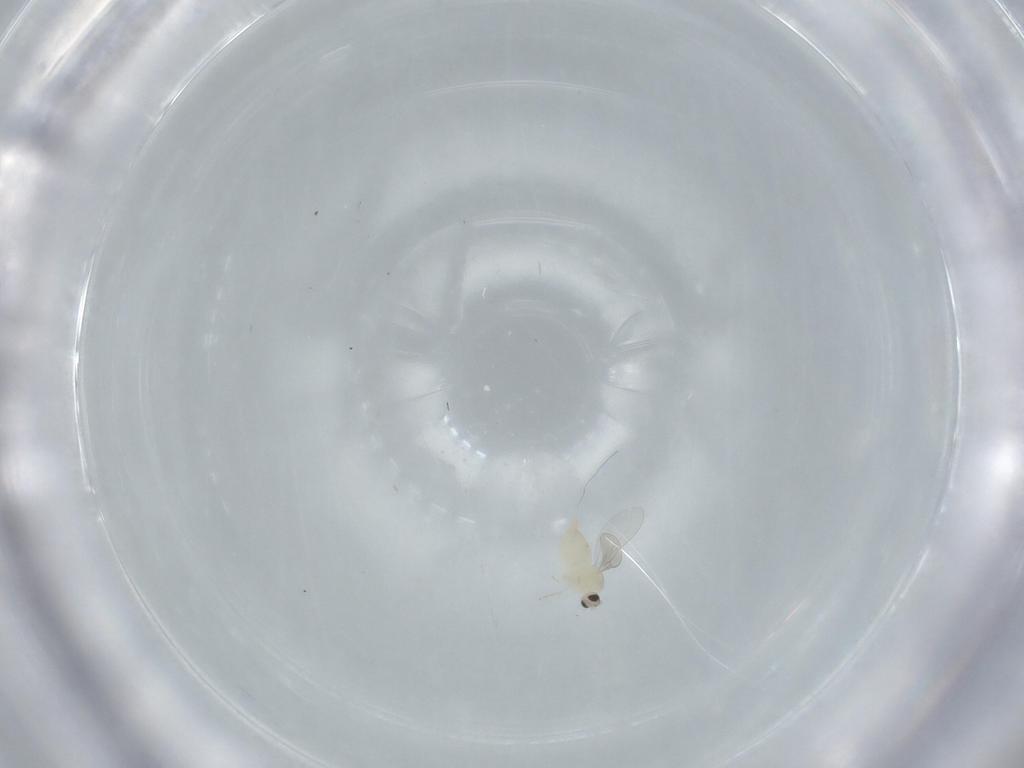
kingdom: Animalia
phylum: Arthropoda
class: Insecta
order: Diptera
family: Cecidomyiidae
